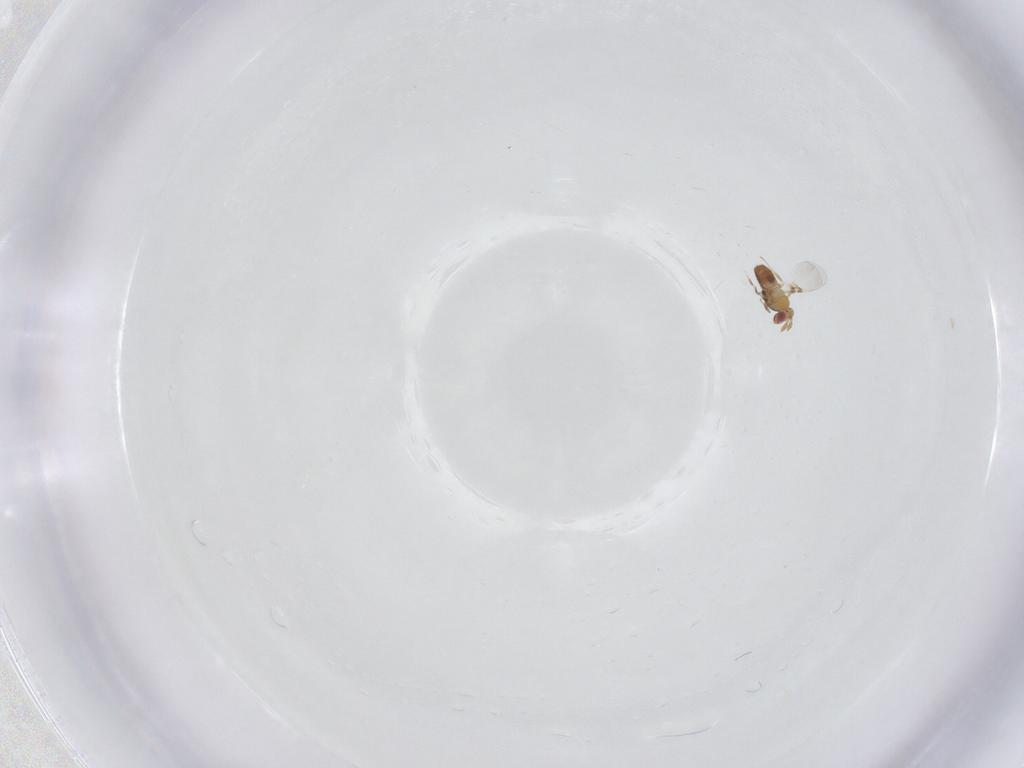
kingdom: Animalia
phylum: Arthropoda
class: Insecta
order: Hymenoptera
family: Trichogrammatidae
